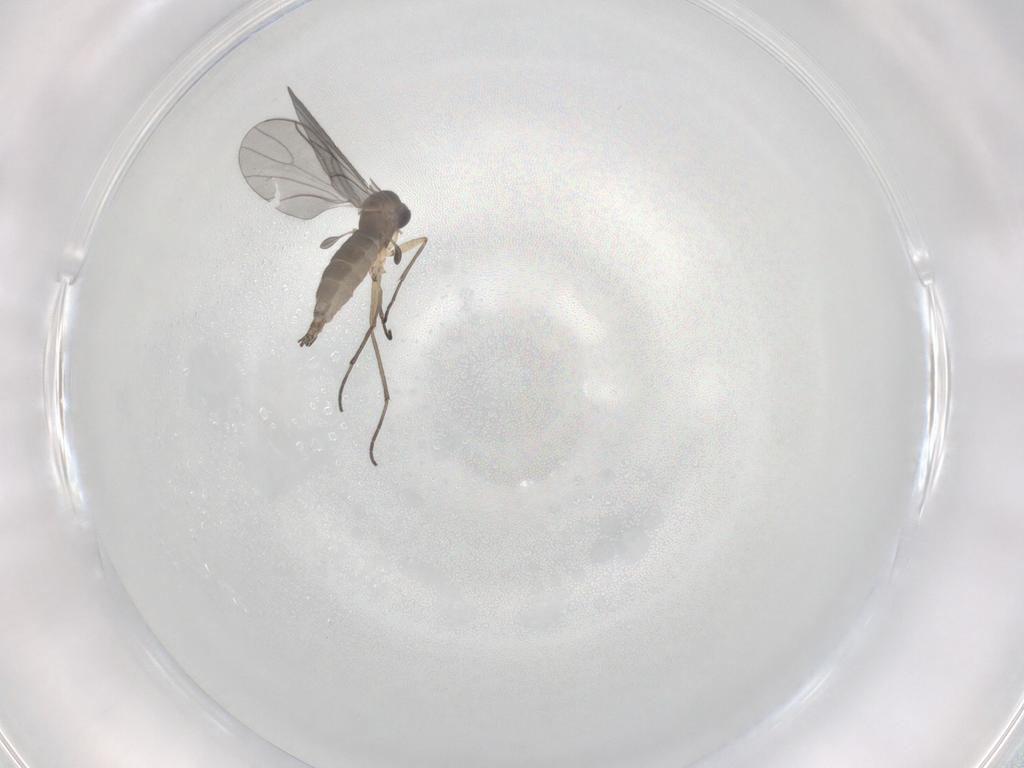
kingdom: Animalia
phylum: Arthropoda
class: Insecta
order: Diptera
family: Sciaridae
